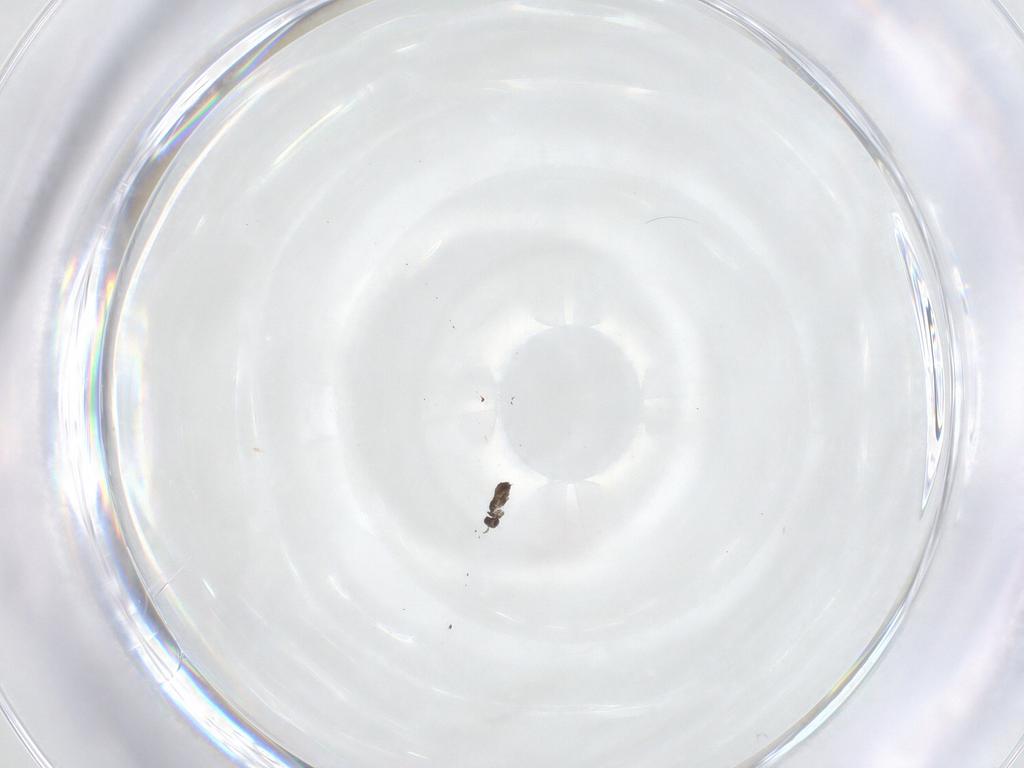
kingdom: Animalia
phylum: Arthropoda
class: Insecta
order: Hymenoptera
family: Mymaridae
